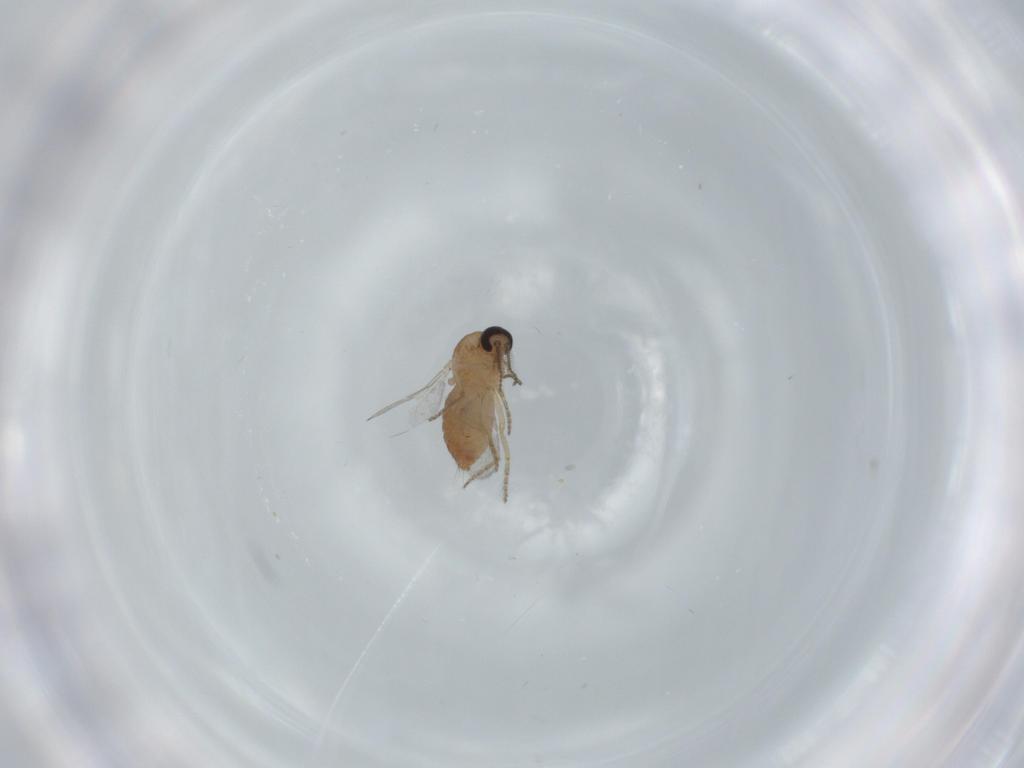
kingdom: Animalia
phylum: Arthropoda
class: Insecta
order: Diptera
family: Ceratopogonidae
